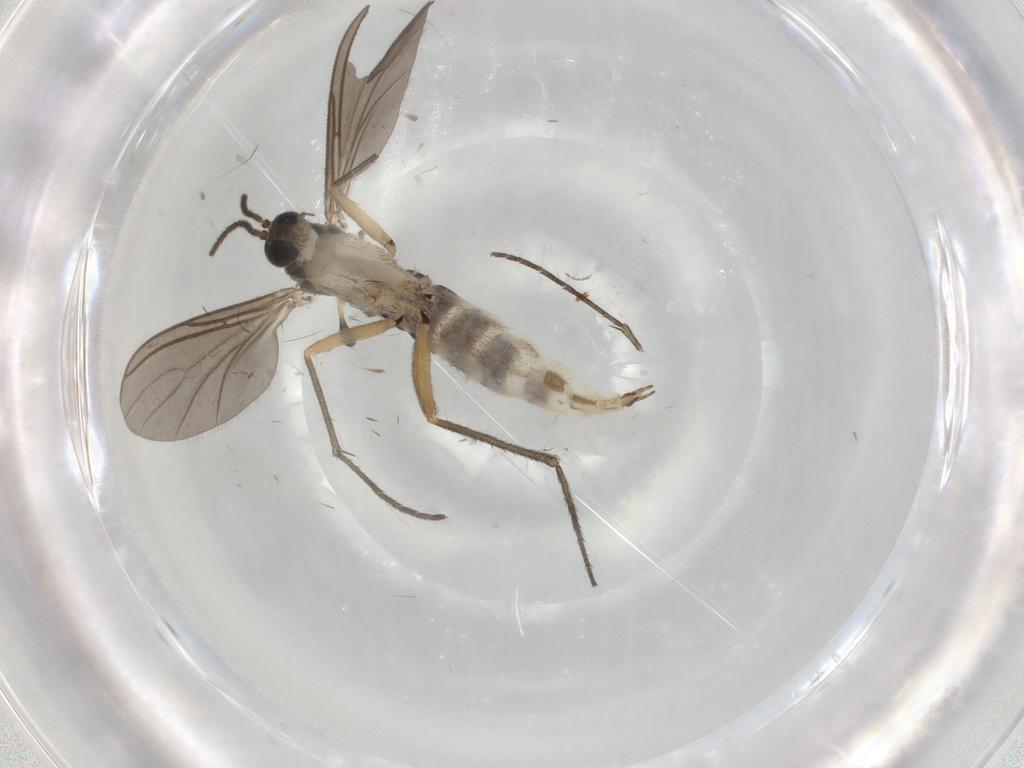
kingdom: Animalia
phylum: Arthropoda
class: Insecta
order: Diptera
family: Sciaridae
